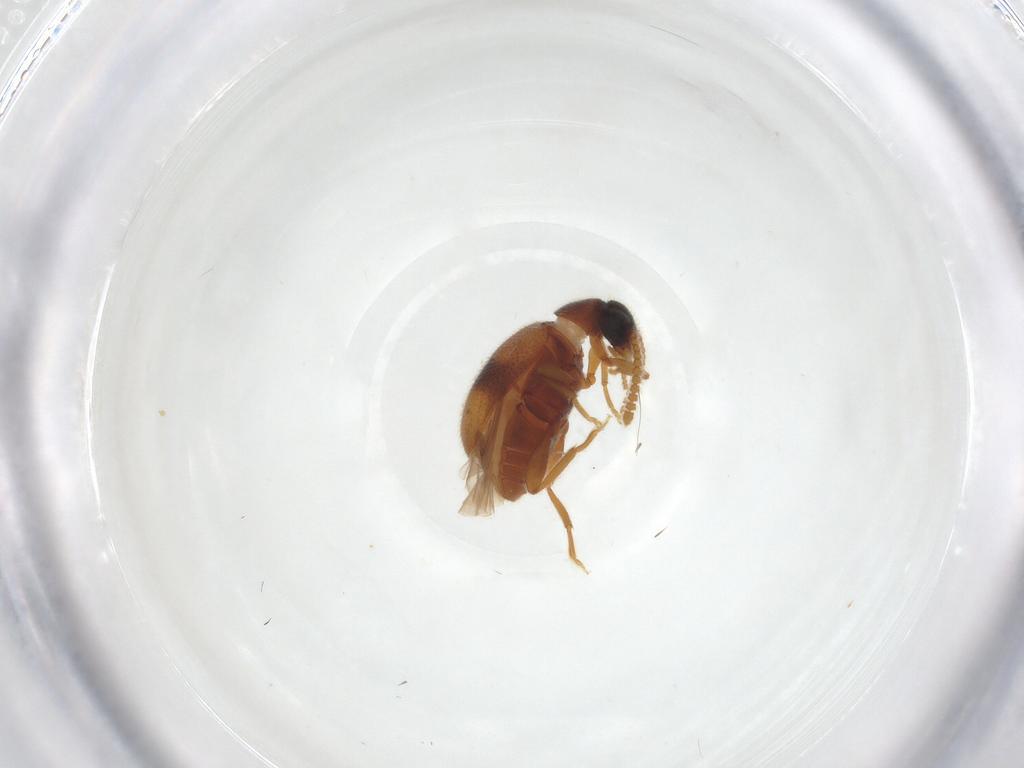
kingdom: Animalia
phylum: Arthropoda
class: Insecta
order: Coleoptera
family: Aderidae
